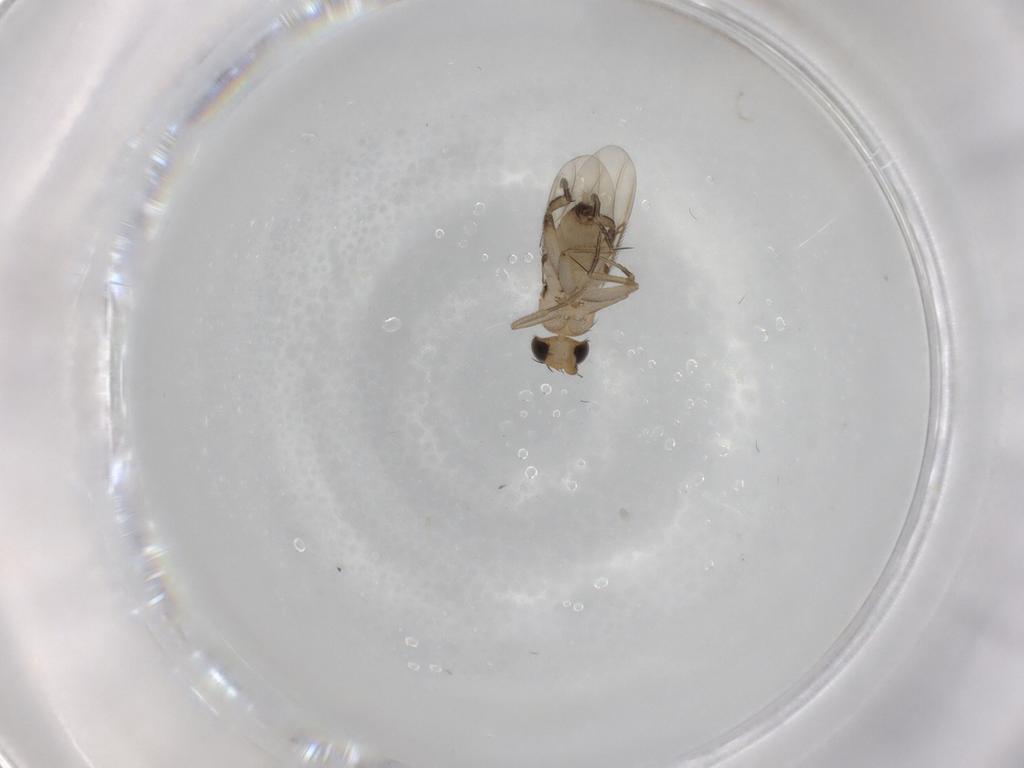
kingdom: Animalia
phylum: Arthropoda
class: Insecta
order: Diptera
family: Phoridae
